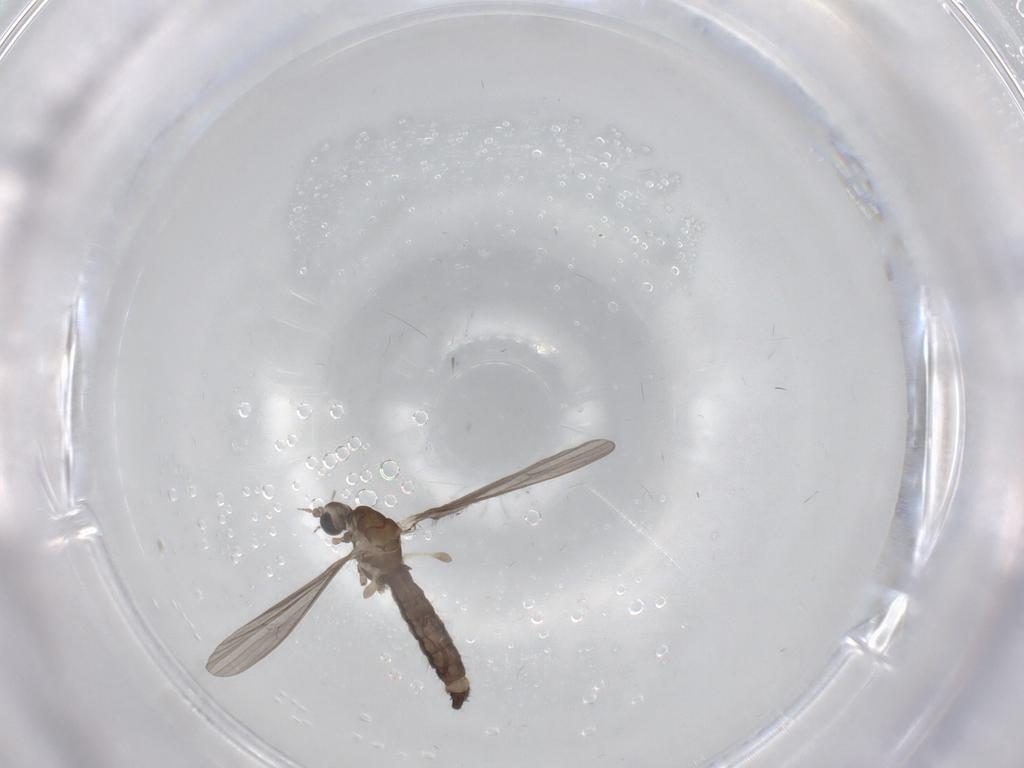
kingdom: Animalia
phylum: Arthropoda
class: Insecta
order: Diptera
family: Limoniidae
